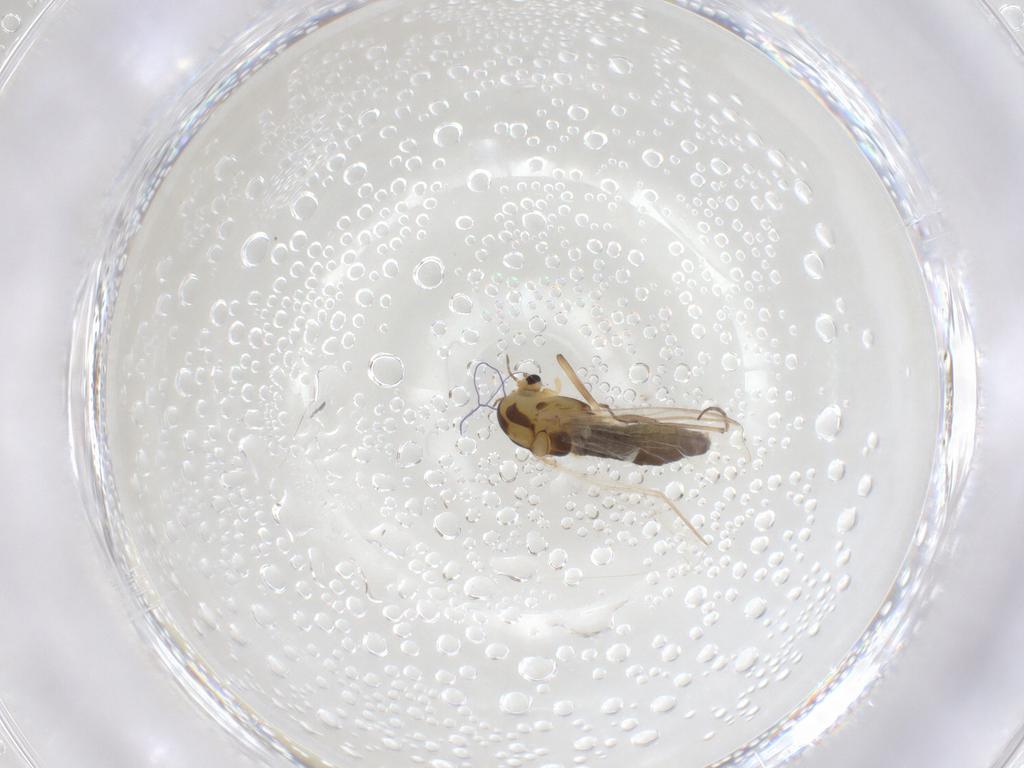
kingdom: Animalia
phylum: Arthropoda
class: Insecta
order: Diptera
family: Chironomidae
